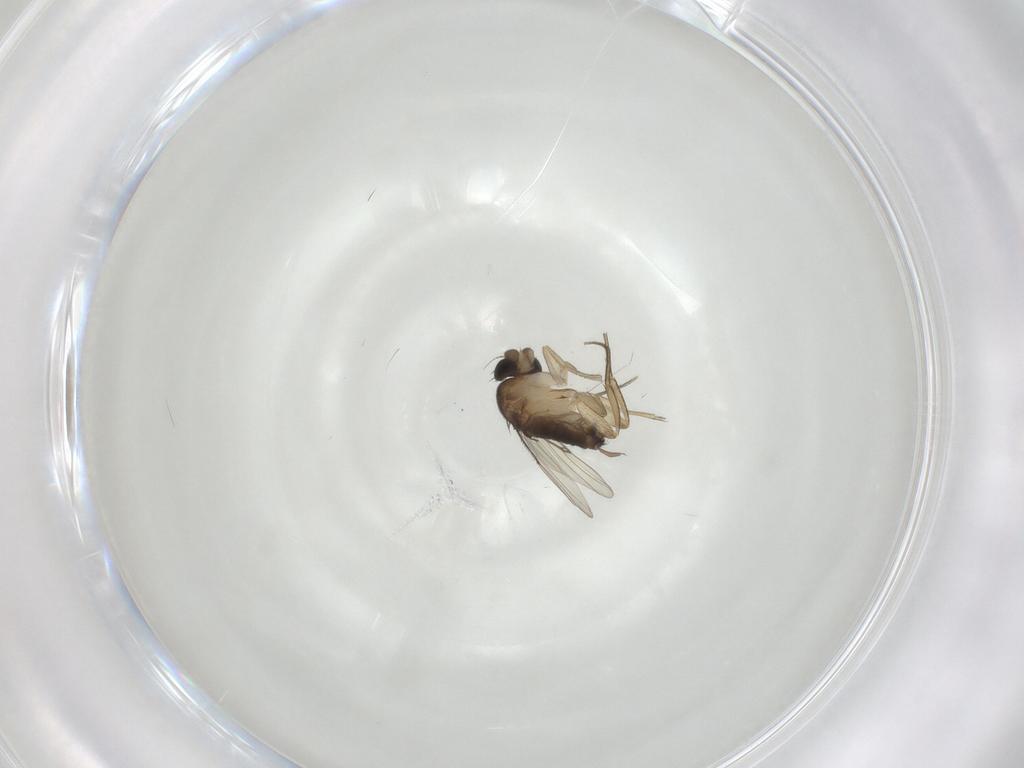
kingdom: Animalia
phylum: Arthropoda
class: Insecta
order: Diptera
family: Phoridae
